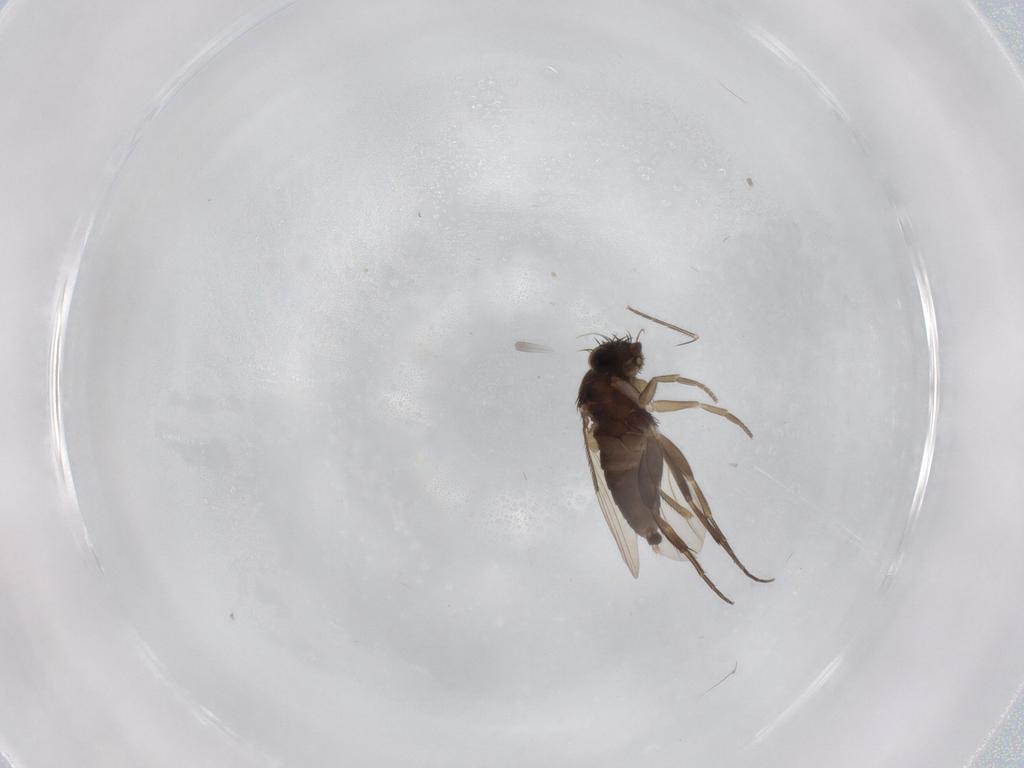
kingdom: Animalia
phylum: Arthropoda
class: Insecta
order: Diptera
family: Phoridae
